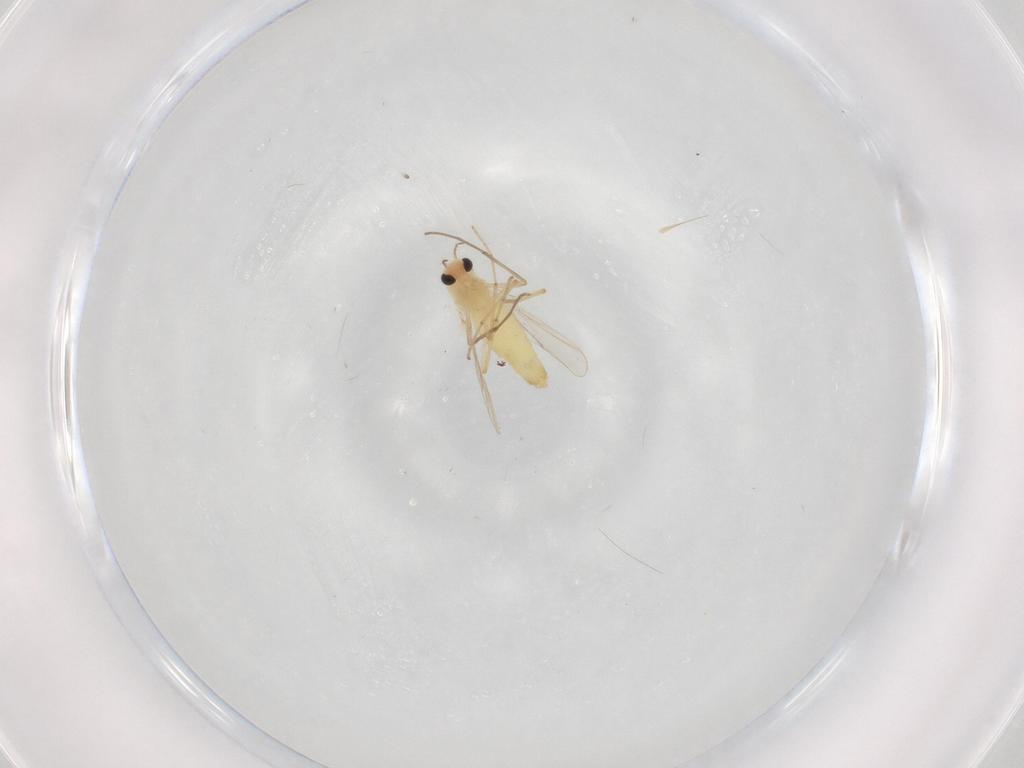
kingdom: Animalia
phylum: Arthropoda
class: Insecta
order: Diptera
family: Chironomidae
